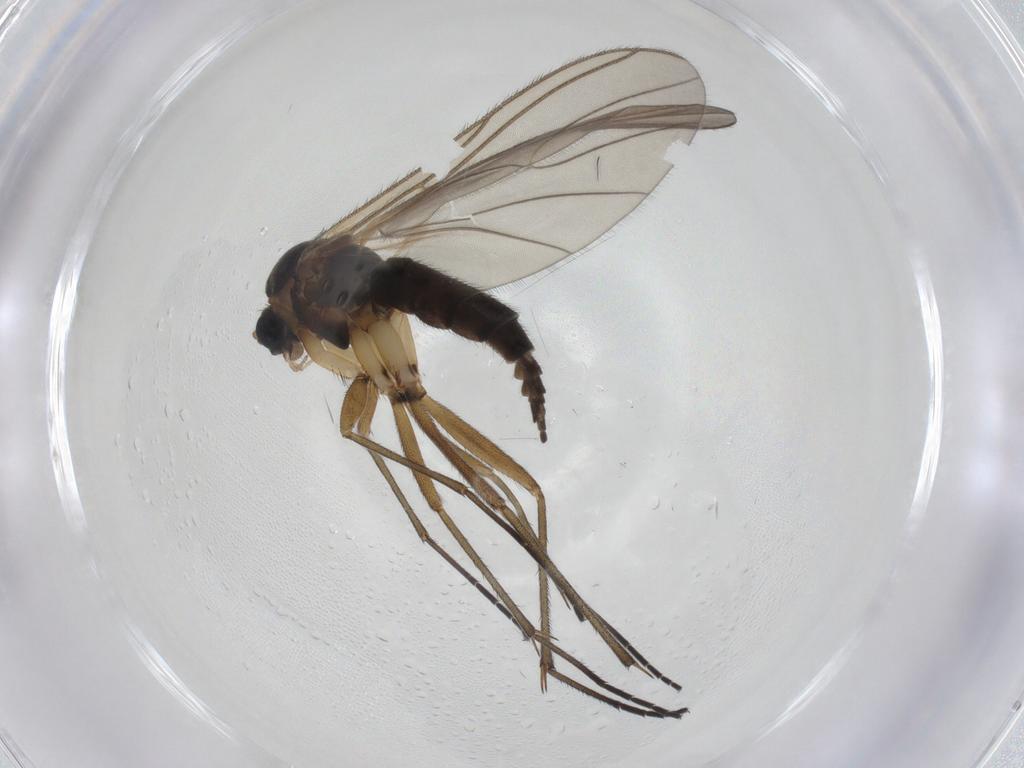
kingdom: Animalia
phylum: Arthropoda
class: Insecta
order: Diptera
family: Sciaridae
